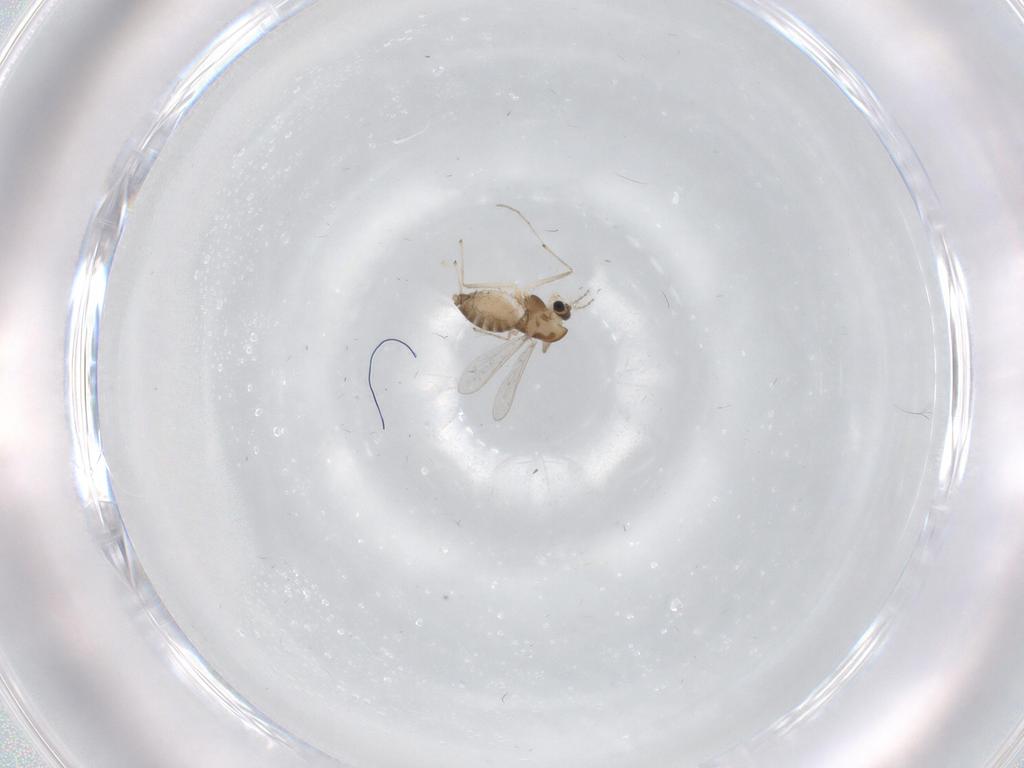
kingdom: Animalia
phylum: Arthropoda
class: Insecta
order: Diptera
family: Chironomidae
